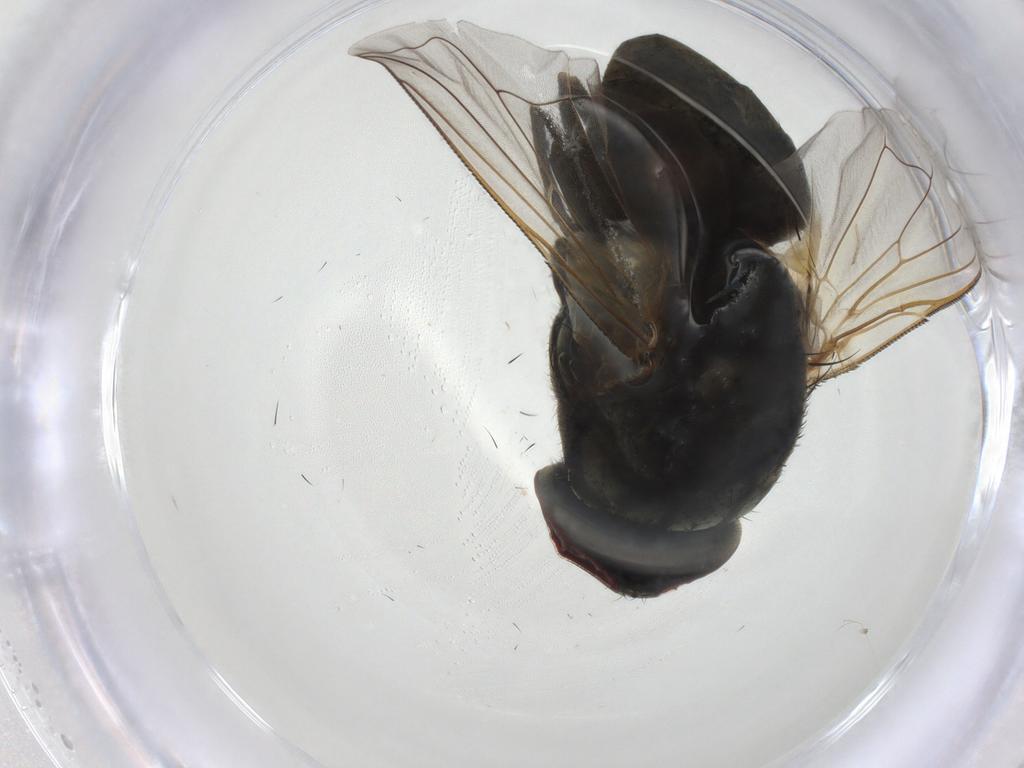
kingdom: Animalia
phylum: Arthropoda
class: Insecta
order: Diptera
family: Muscidae
